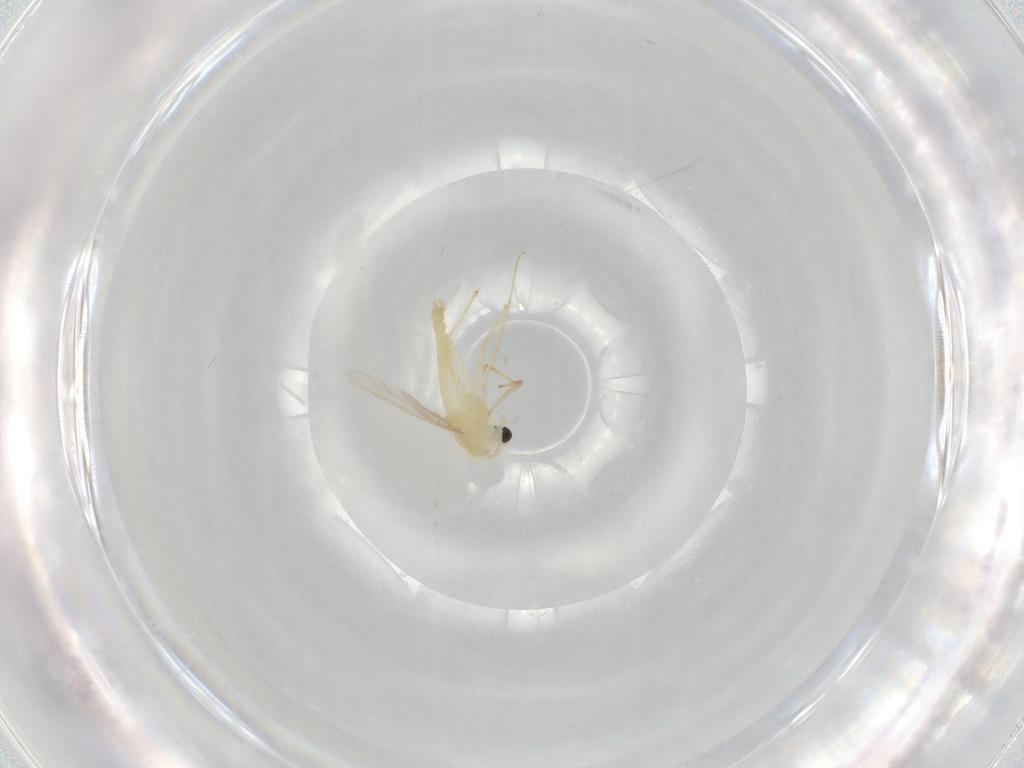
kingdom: Animalia
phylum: Arthropoda
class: Insecta
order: Diptera
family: Chironomidae
